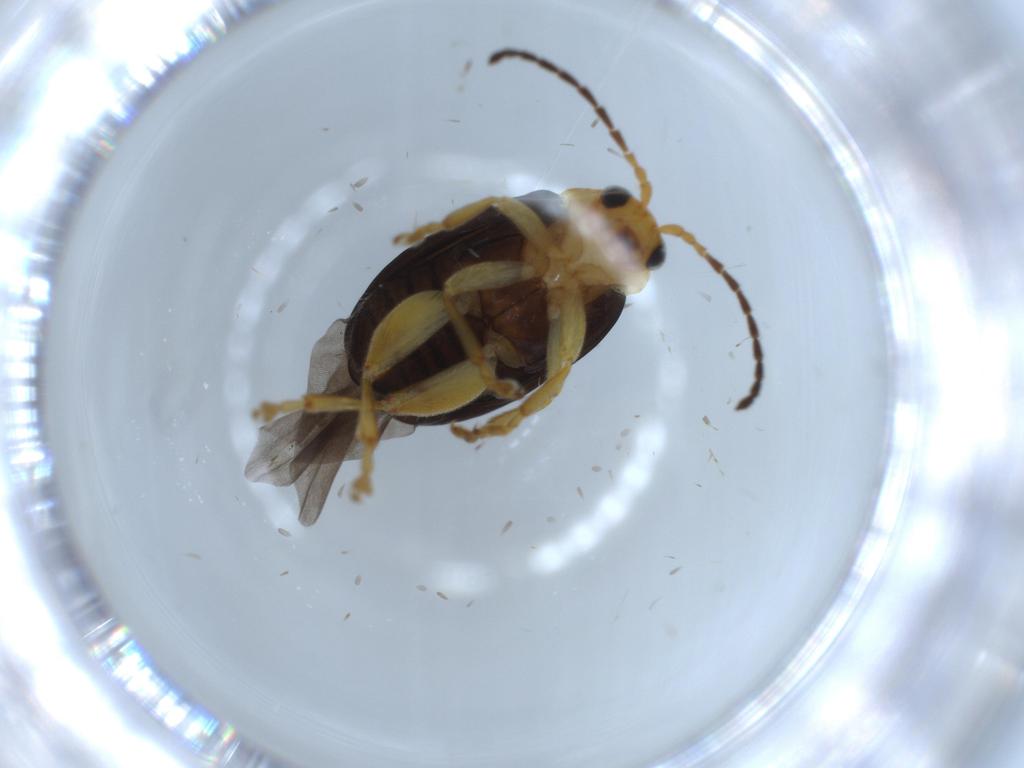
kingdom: Animalia
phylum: Arthropoda
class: Insecta
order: Coleoptera
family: Chrysomelidae
